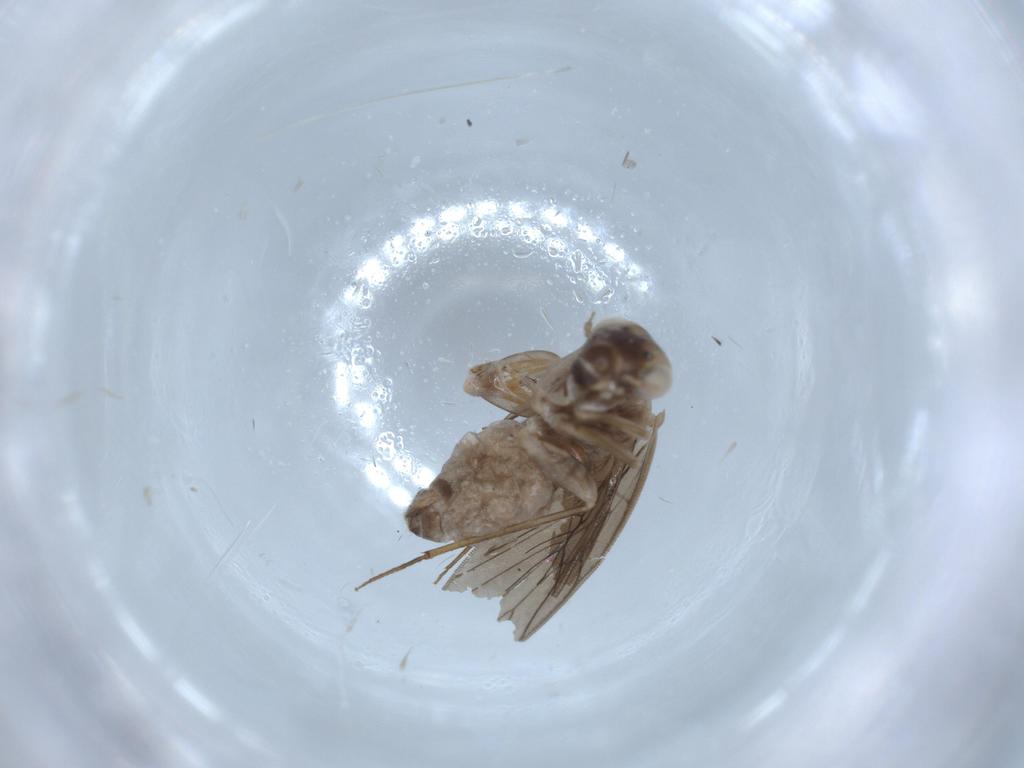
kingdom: Animalia
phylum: Arthropoda
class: Insecta
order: Psocodea
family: Lepidopsocidae
